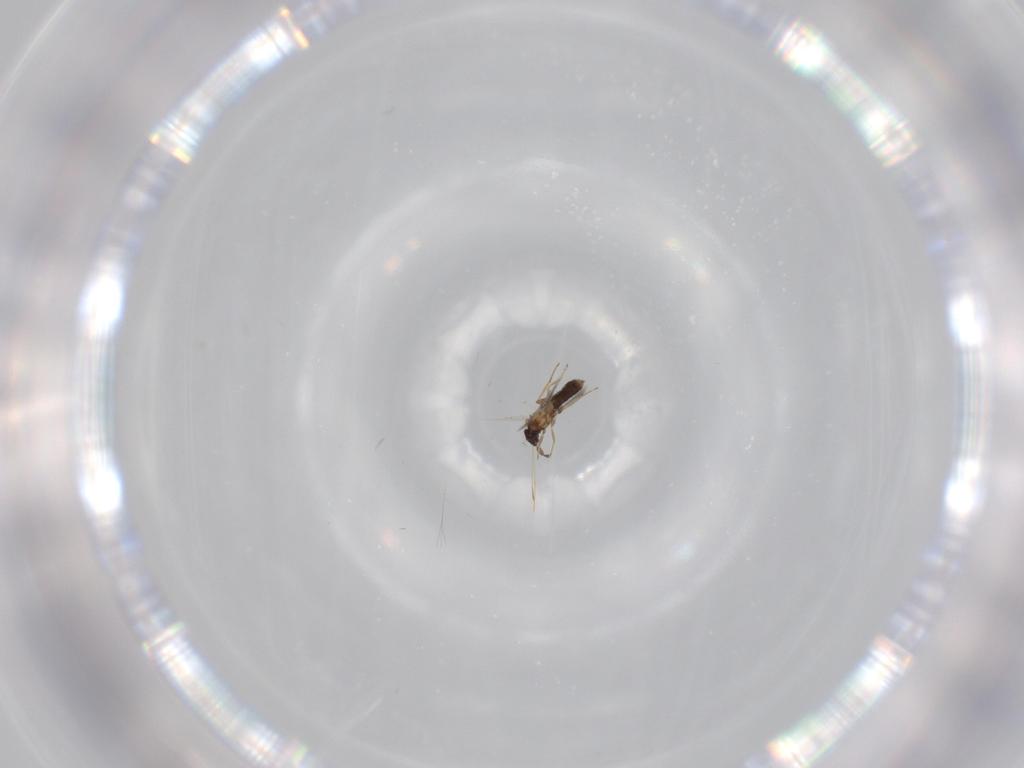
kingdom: Animalia
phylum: Arthropoda
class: Insecta
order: Hymenoptera
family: Mymaridae
